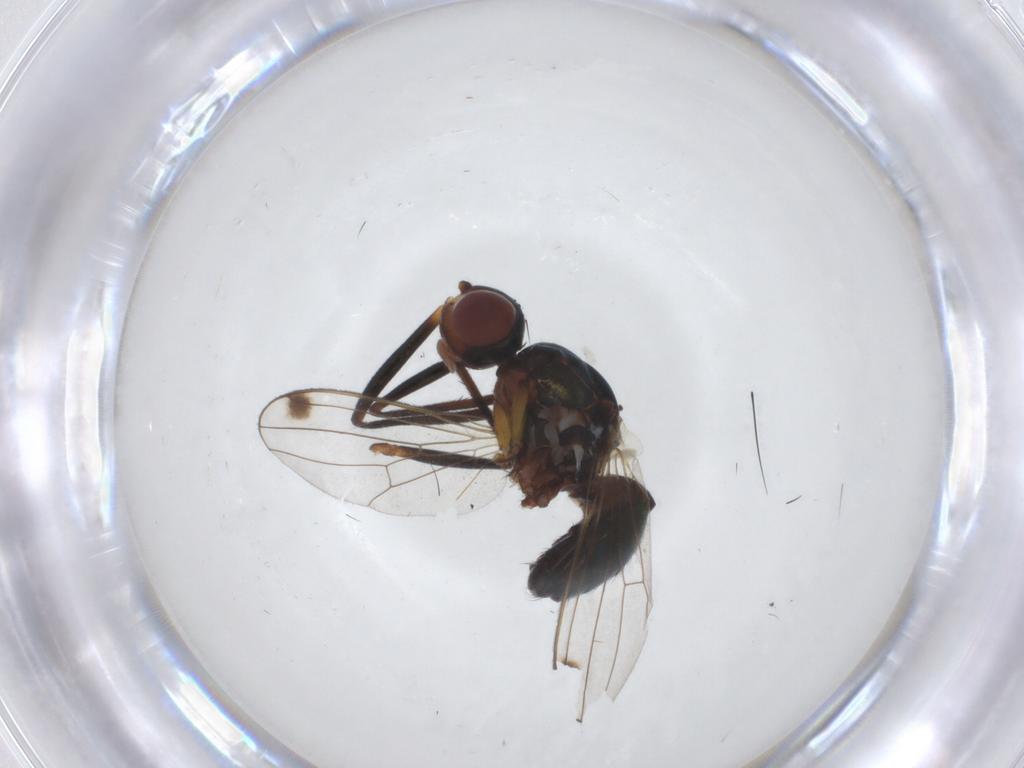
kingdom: Animalia
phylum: Arthropoda
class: Insecta
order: Diptera
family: Sepsidae
